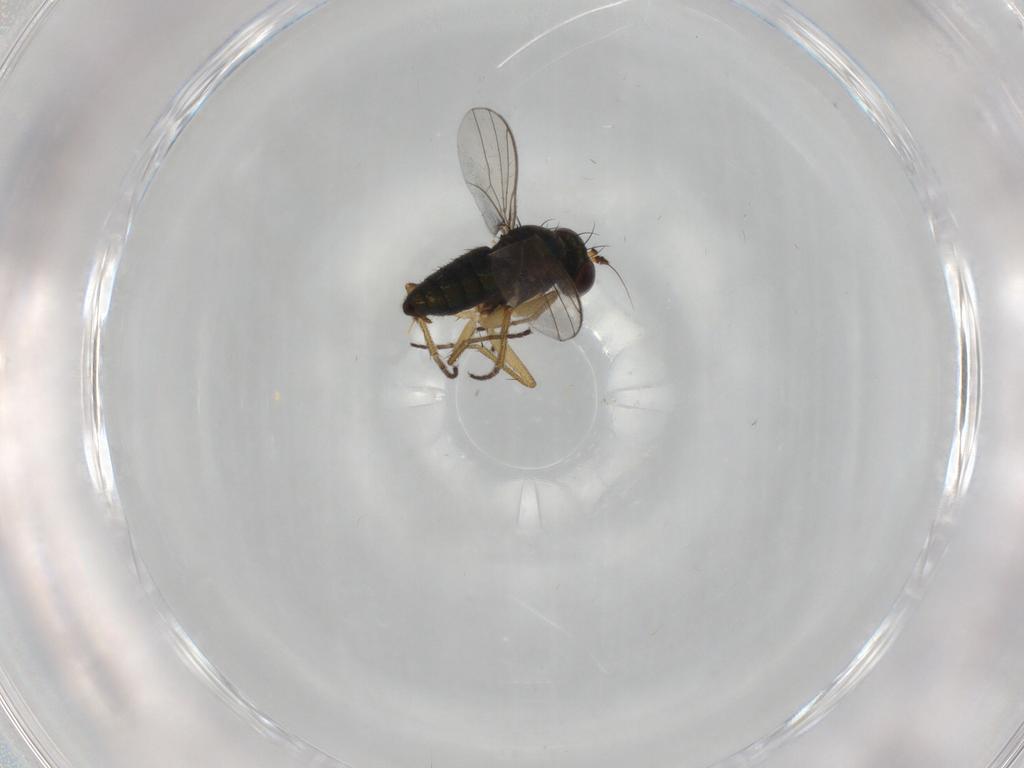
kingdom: Animalia
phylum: Arthropoda
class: Insecta
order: Diptera
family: Dolichopodidae
